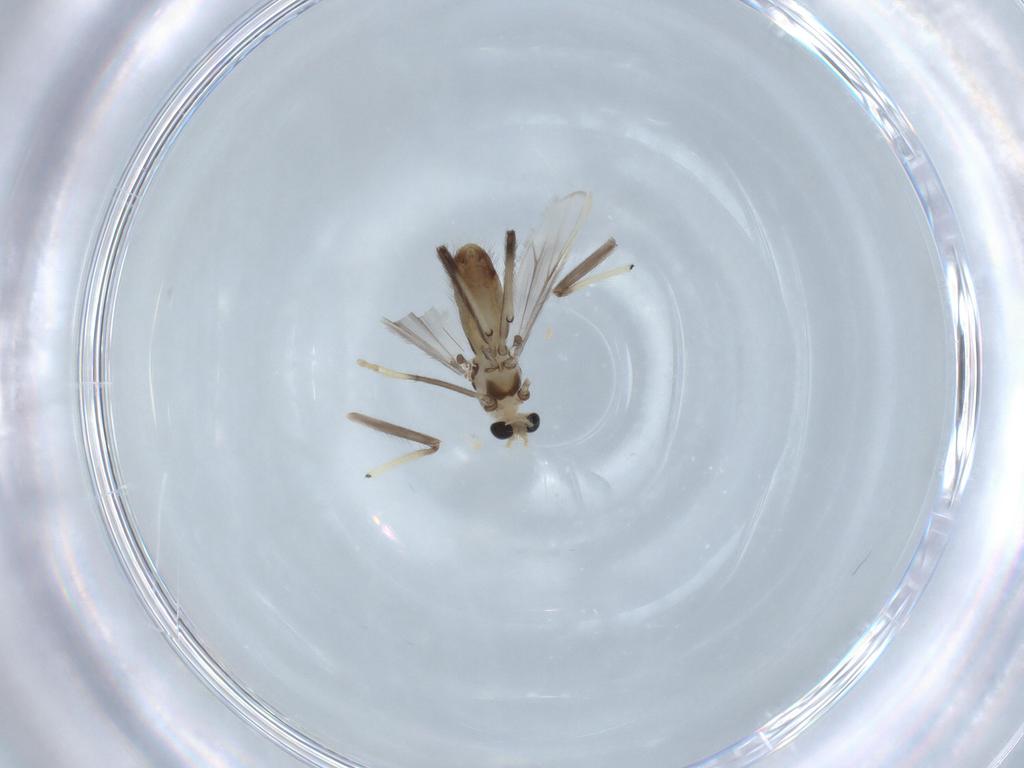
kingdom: Animalia
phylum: Arthropoda
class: Insecta
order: Diptera
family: Chironomidae
